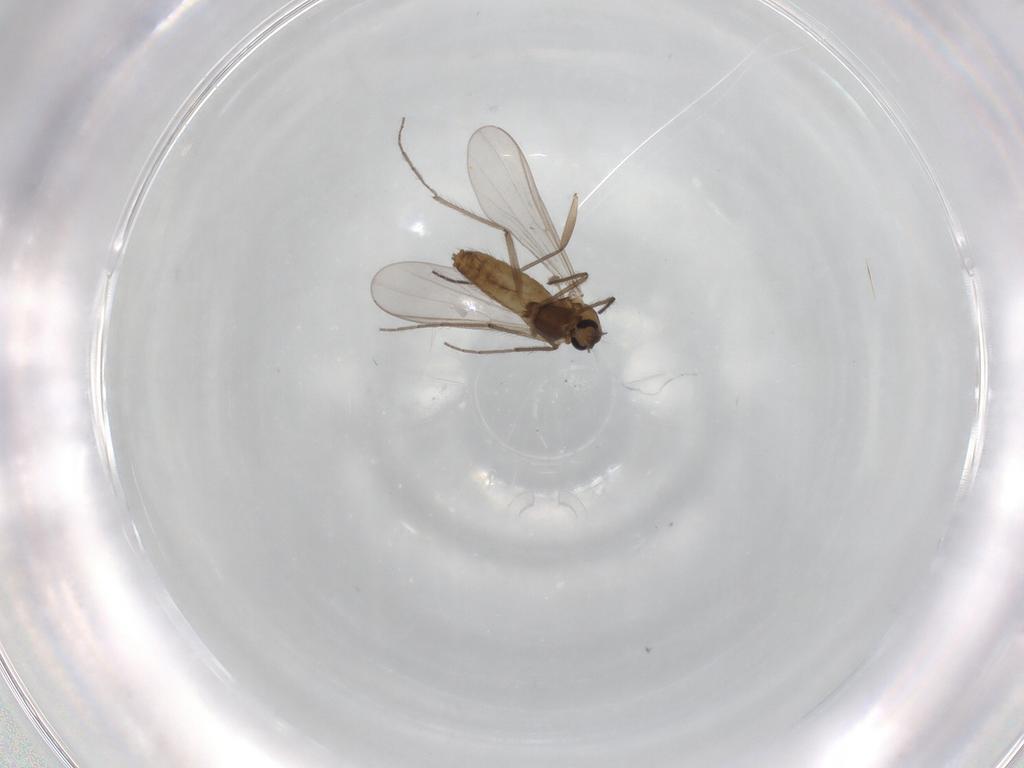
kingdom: Animalia
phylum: Arthropoda
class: Insecta
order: Diptera
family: Chironomidae
